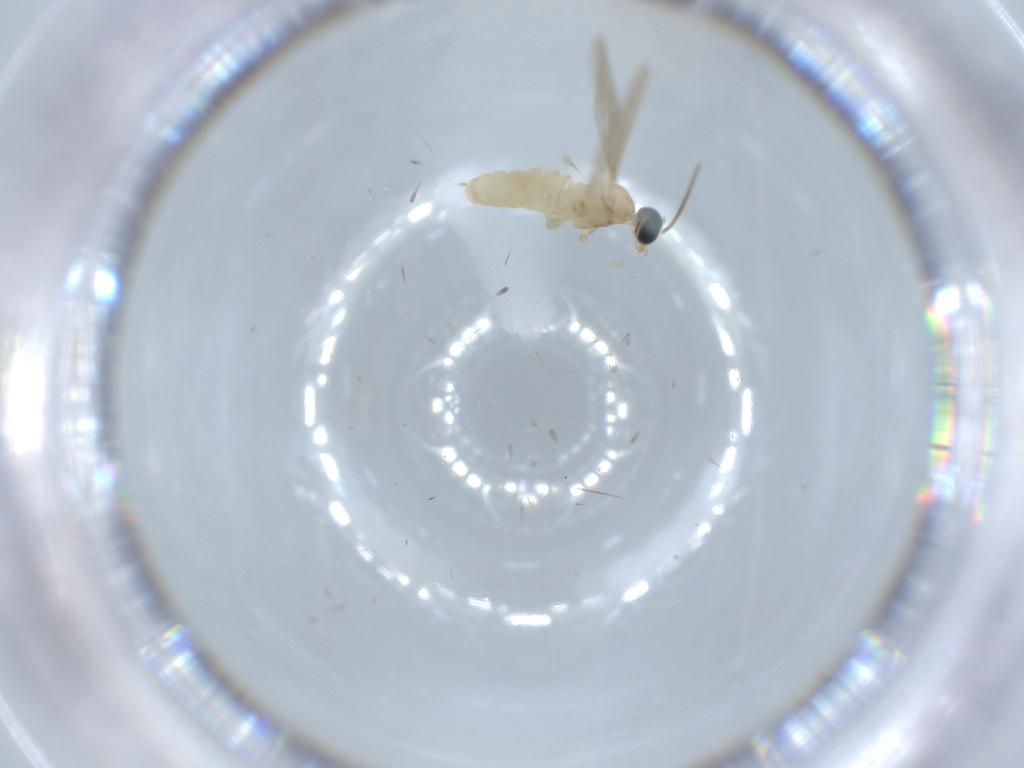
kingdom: Animalia
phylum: Arthropoda
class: Insecta
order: Diptera
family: Cecidomyiidae
